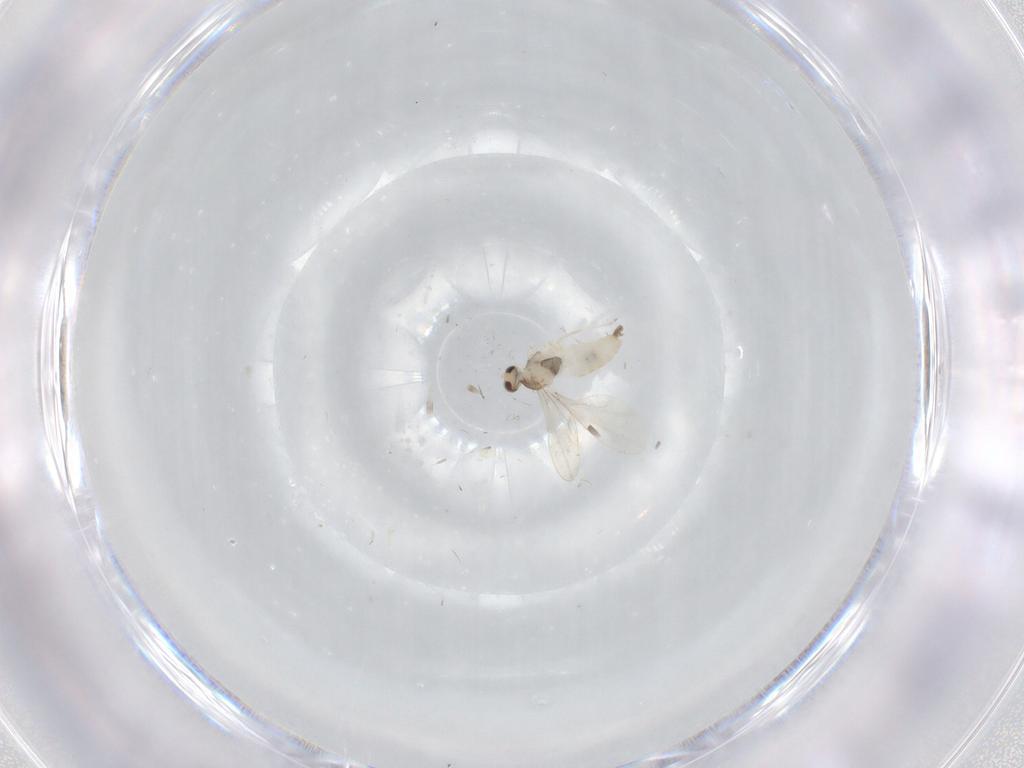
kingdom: Animalia
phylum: Arthropoda
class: Insecta
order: Diptera
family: Cecidomyiidae
